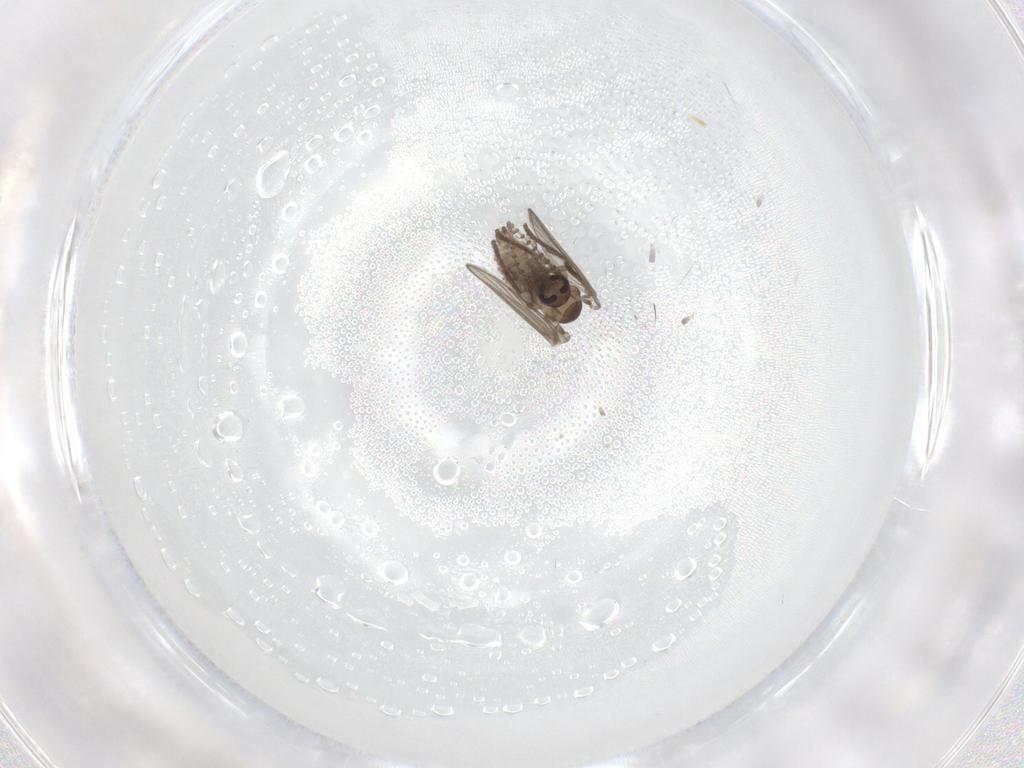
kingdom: Animalia
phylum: Arthropoda
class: Insecta
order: Diptera
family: Psychodidae
